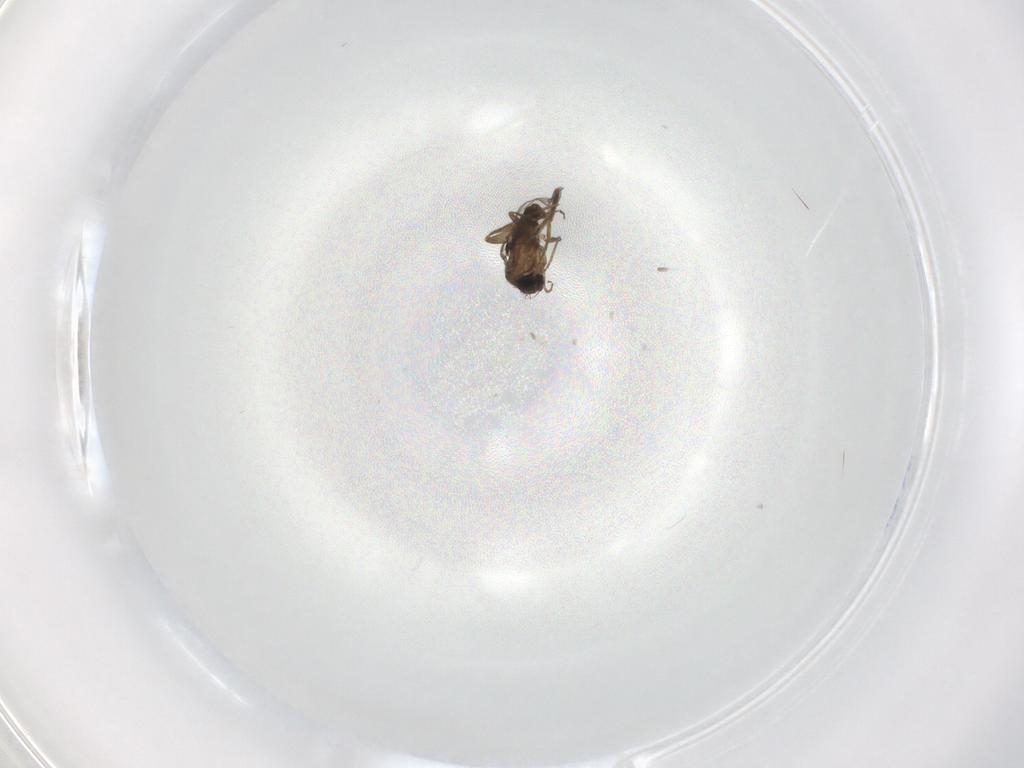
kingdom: Animalia
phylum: Arthropoda
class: Insecta
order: Diptera
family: Phoridae
